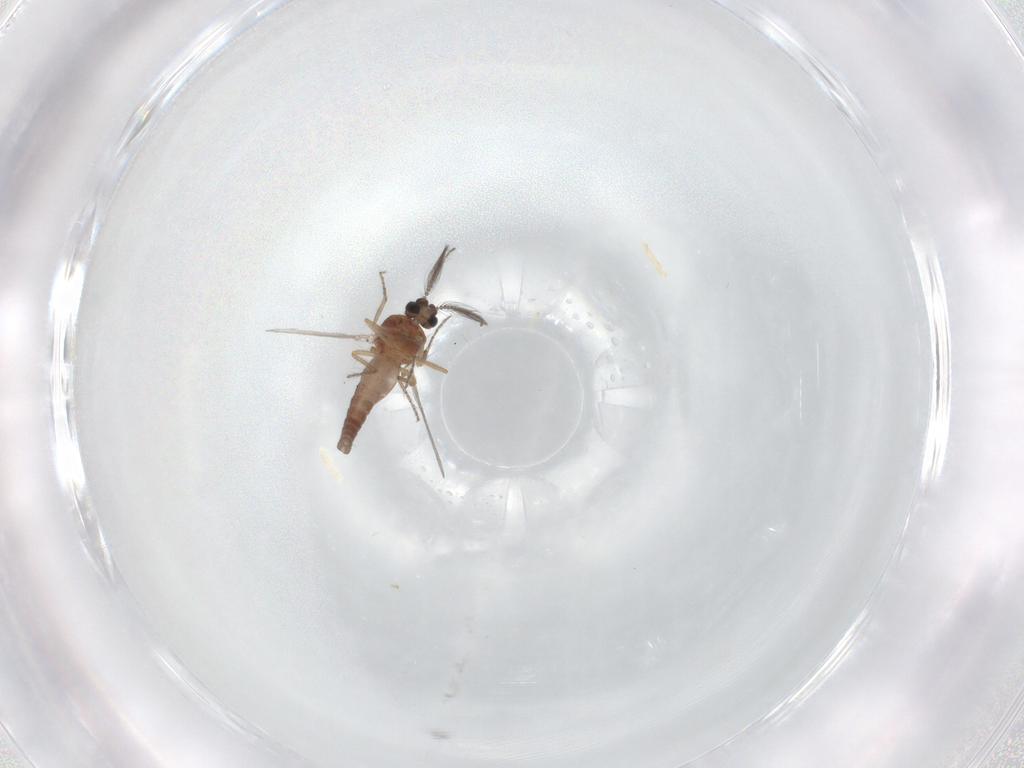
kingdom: Animalia
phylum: Arthropoda
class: Insecta
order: Diptera
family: Ceratopogonidae
